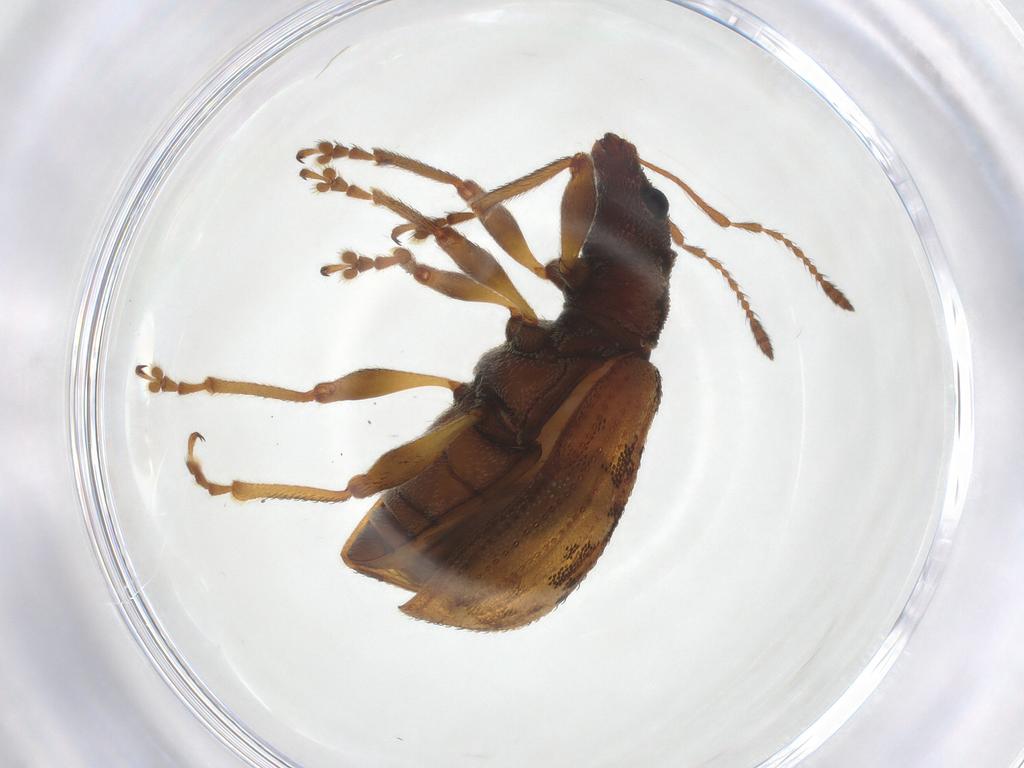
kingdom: Animalia
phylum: Arthropoda
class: Insecta
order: Coleoptera
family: Curculionidae
